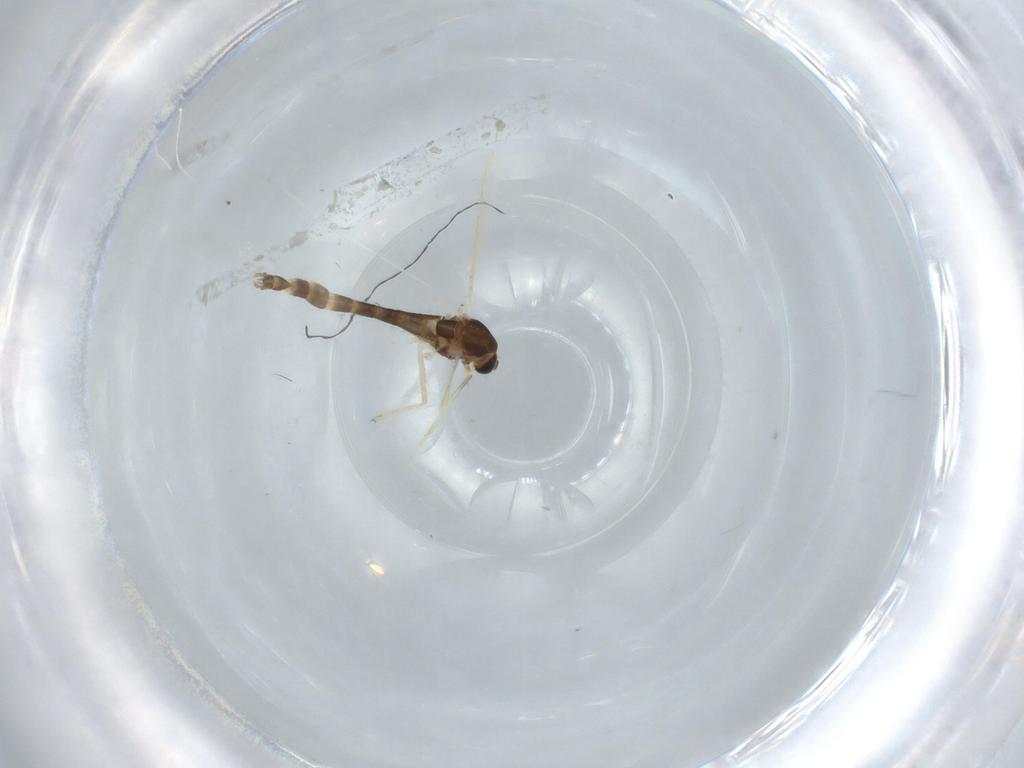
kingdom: Animalia
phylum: Arthropoda
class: Insecta
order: Diptera
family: Chironomidae
